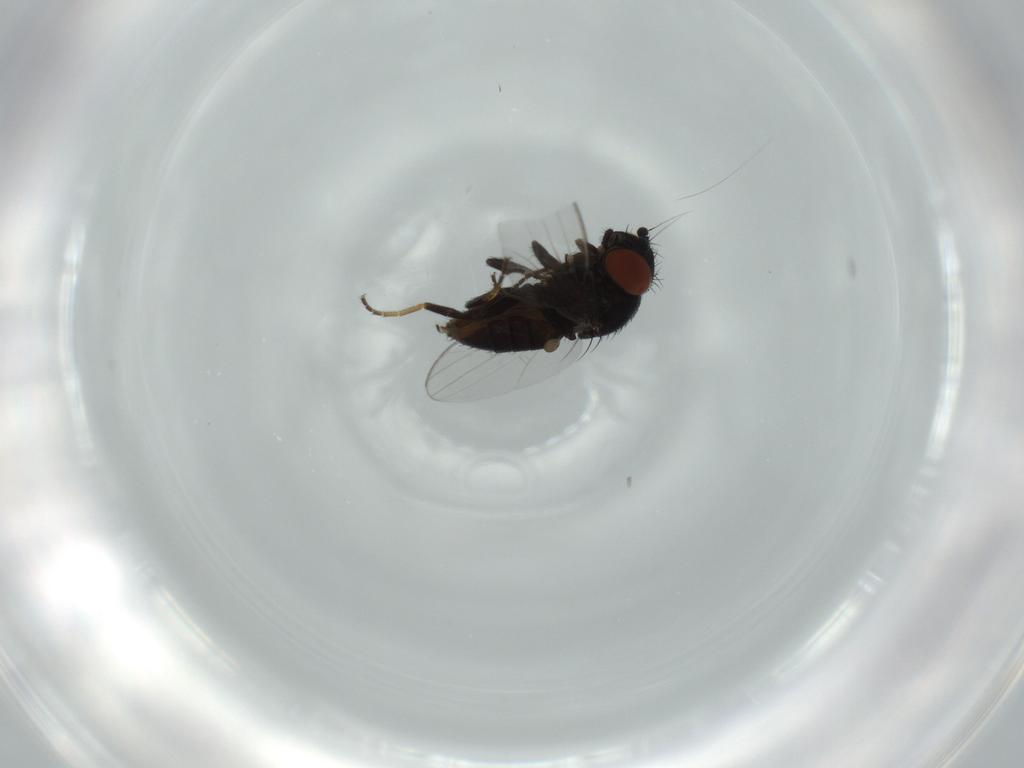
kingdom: Animalia
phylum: Arthropoda
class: Insecta
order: Diptera
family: Milichiidae
